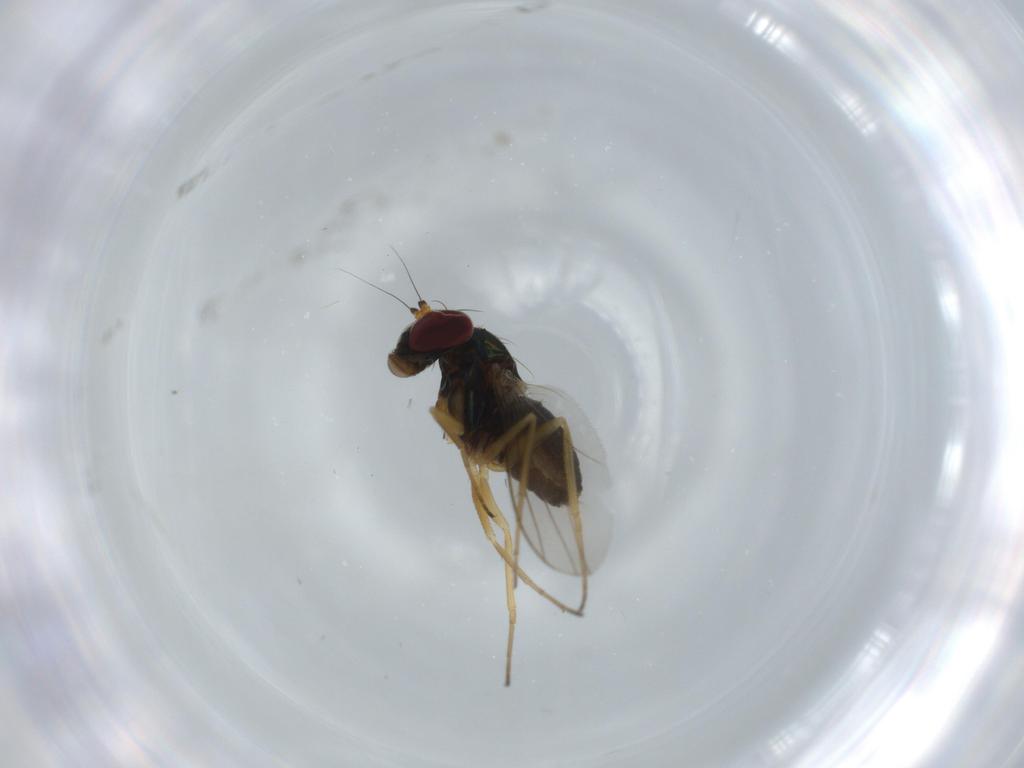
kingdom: Animalia
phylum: Arthropoda
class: Insecta
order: Diptera
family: Dolichopodidae
